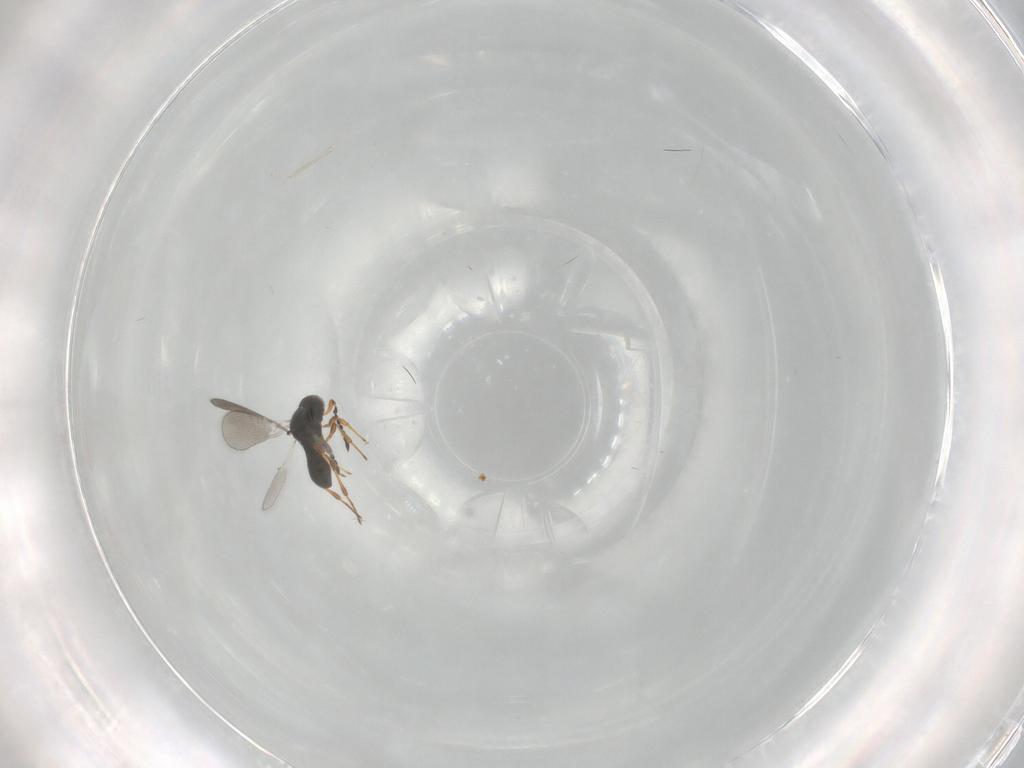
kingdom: Animalia
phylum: Arthropoda
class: Insecta
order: Hymenoptera
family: Platygastridae
